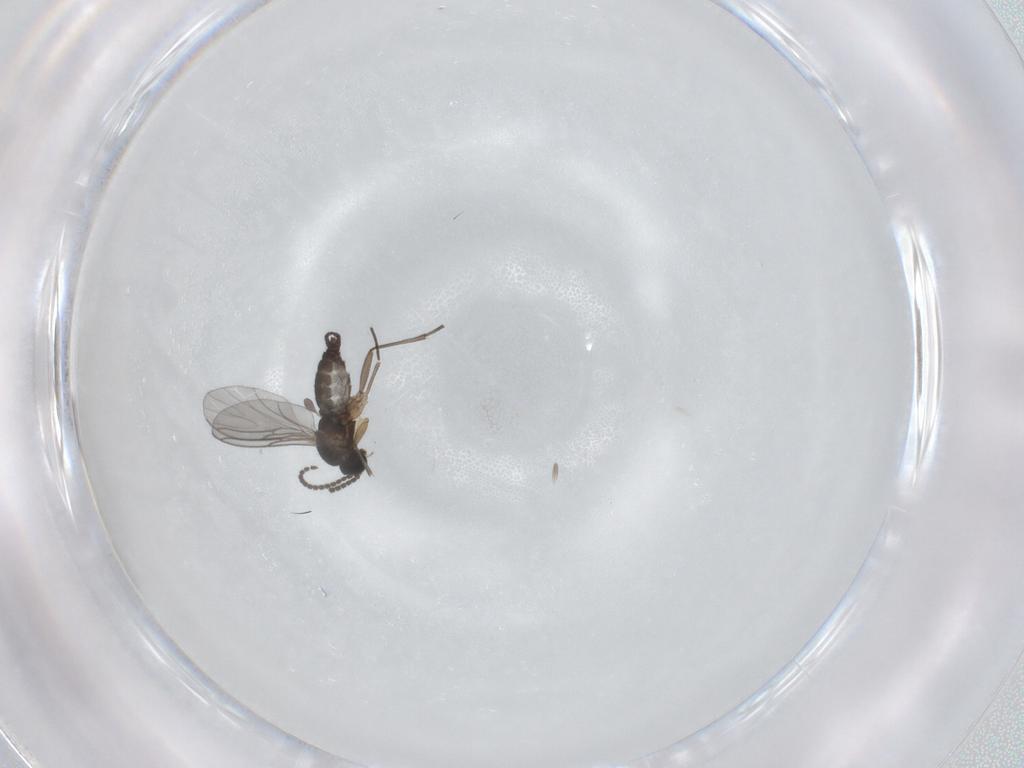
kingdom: Animalia
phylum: Arthropoda
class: Insecta
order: Diptera
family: Sciaridae
